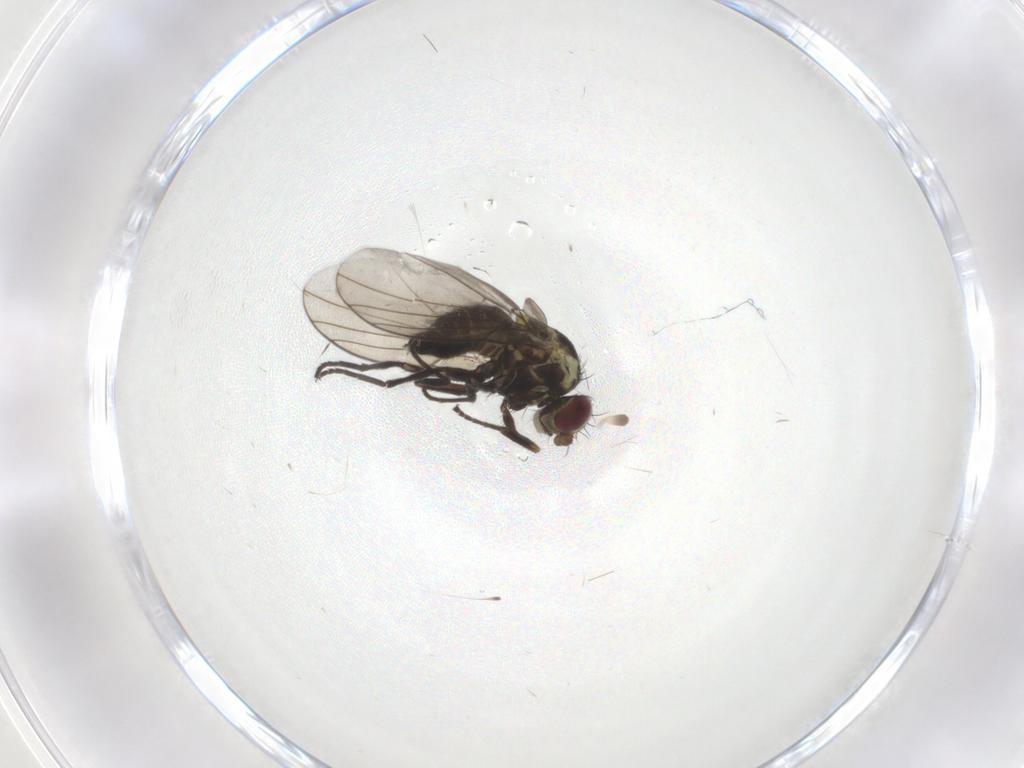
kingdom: Animalia
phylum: Arthropoda
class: Insecta
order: Diptera
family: Agromyzidae
